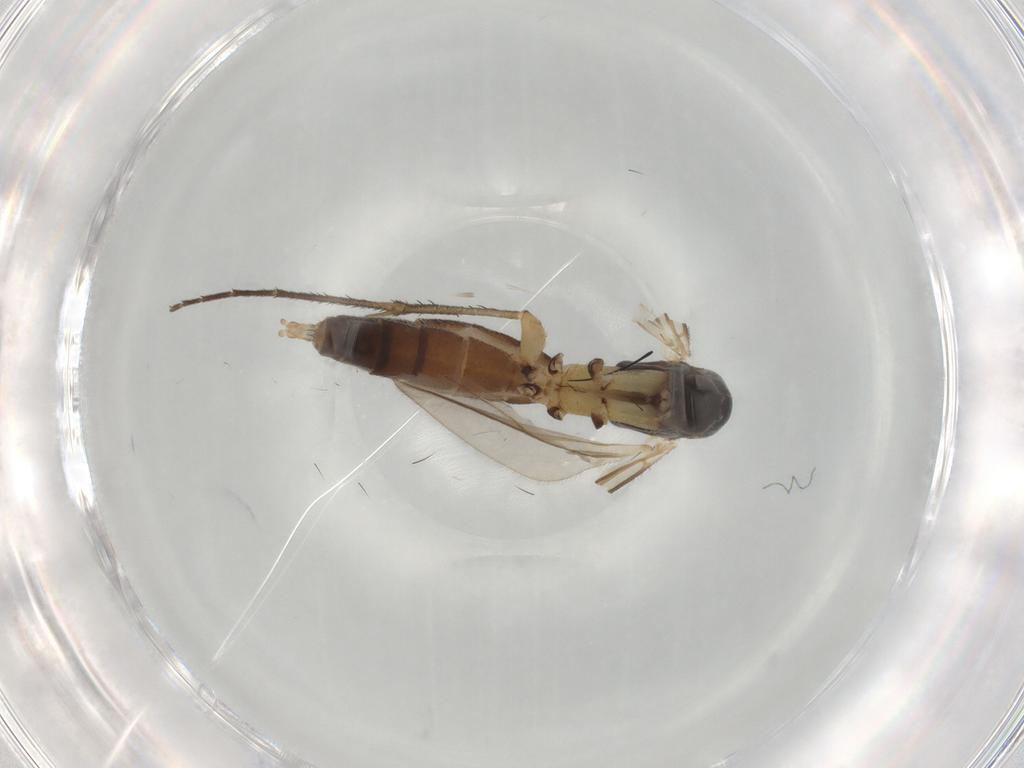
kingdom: Animalia
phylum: Arthropoda
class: Insecta
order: Diptera
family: Mycetophilidae
